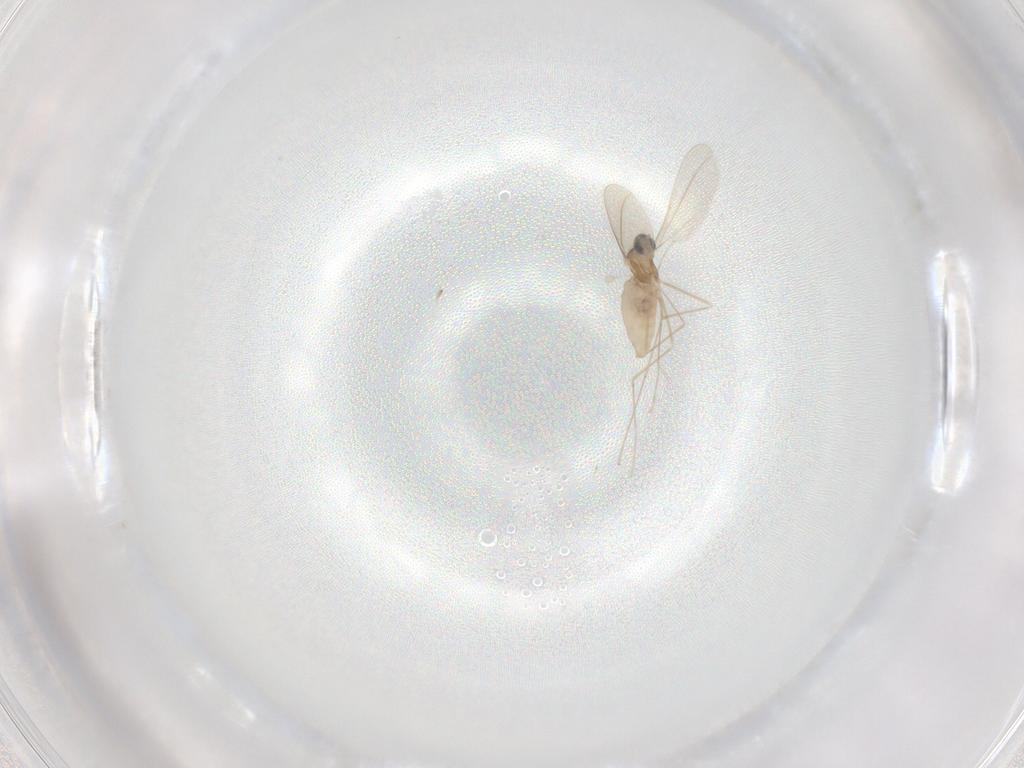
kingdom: Animalia
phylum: Arthropoda
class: Insecta
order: Diptera
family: Cecidomyiidae
